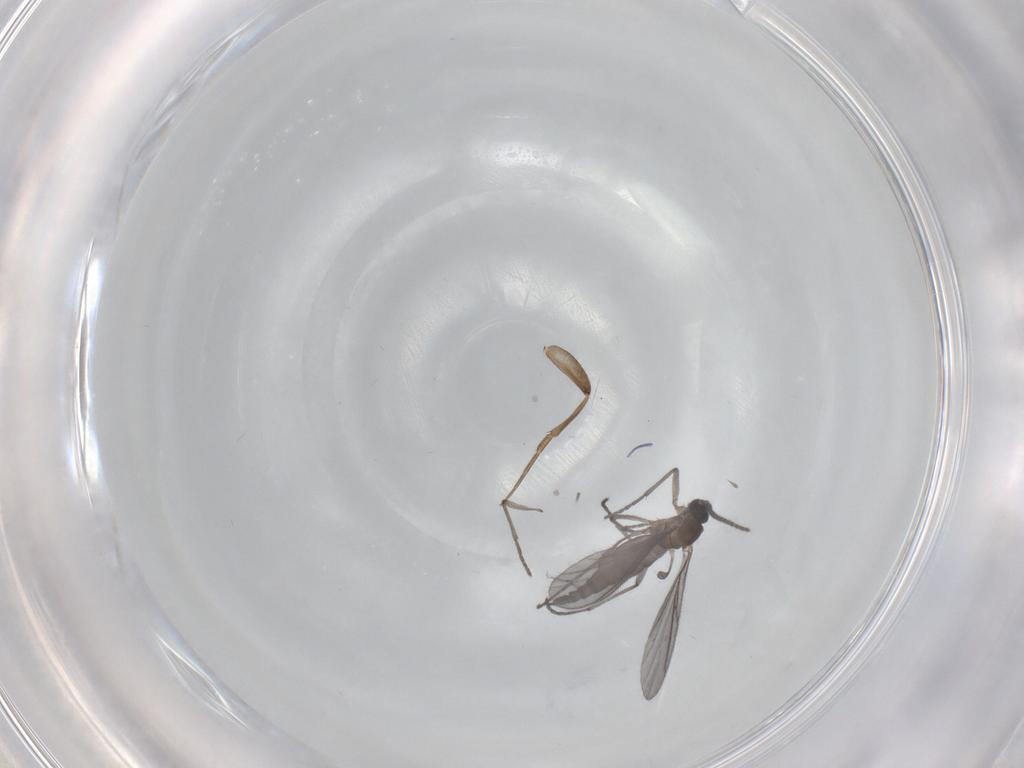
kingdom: Animalia
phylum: Arthropoda
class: Insecta
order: Diptera
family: Sciaridae
